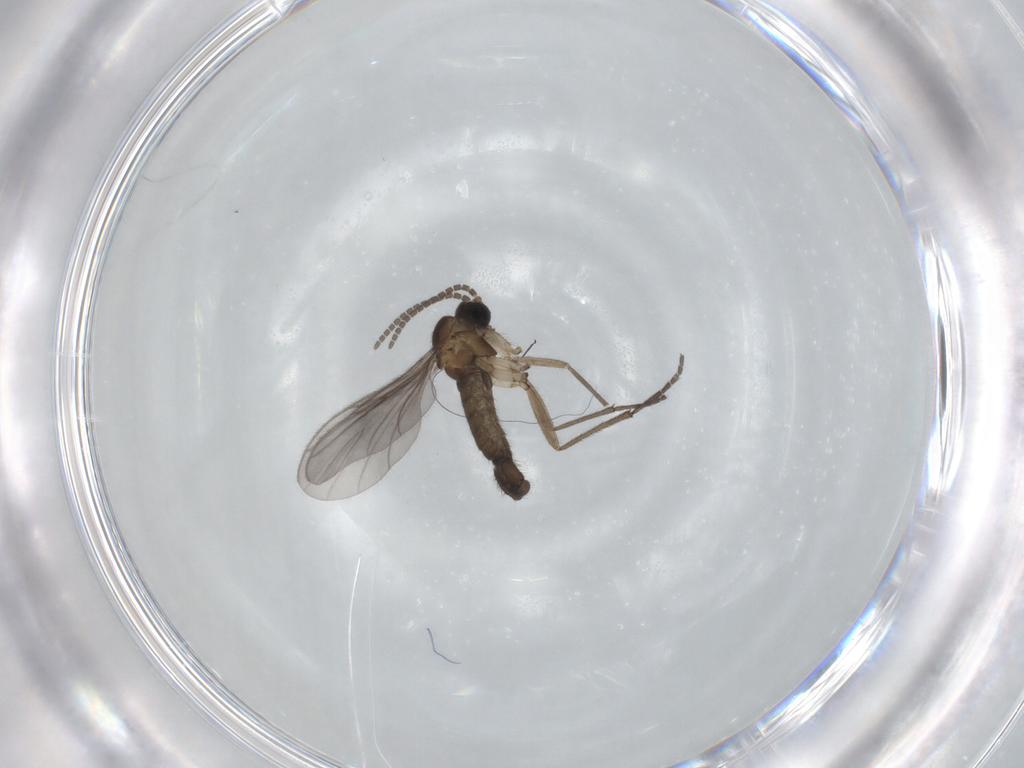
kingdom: Animalia
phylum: Arthropoda
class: Insecta
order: Diptera
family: Sciaridae
